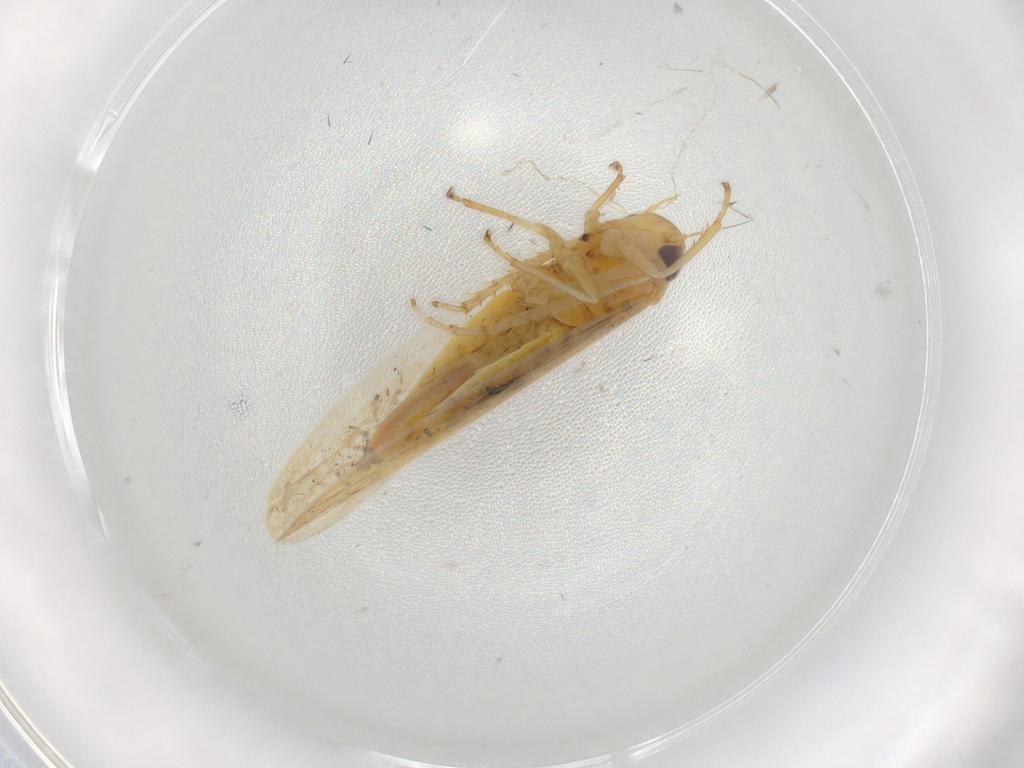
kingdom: Animalia
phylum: Arthropoda
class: Insecta
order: Hemiptera
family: Cicadellidae
